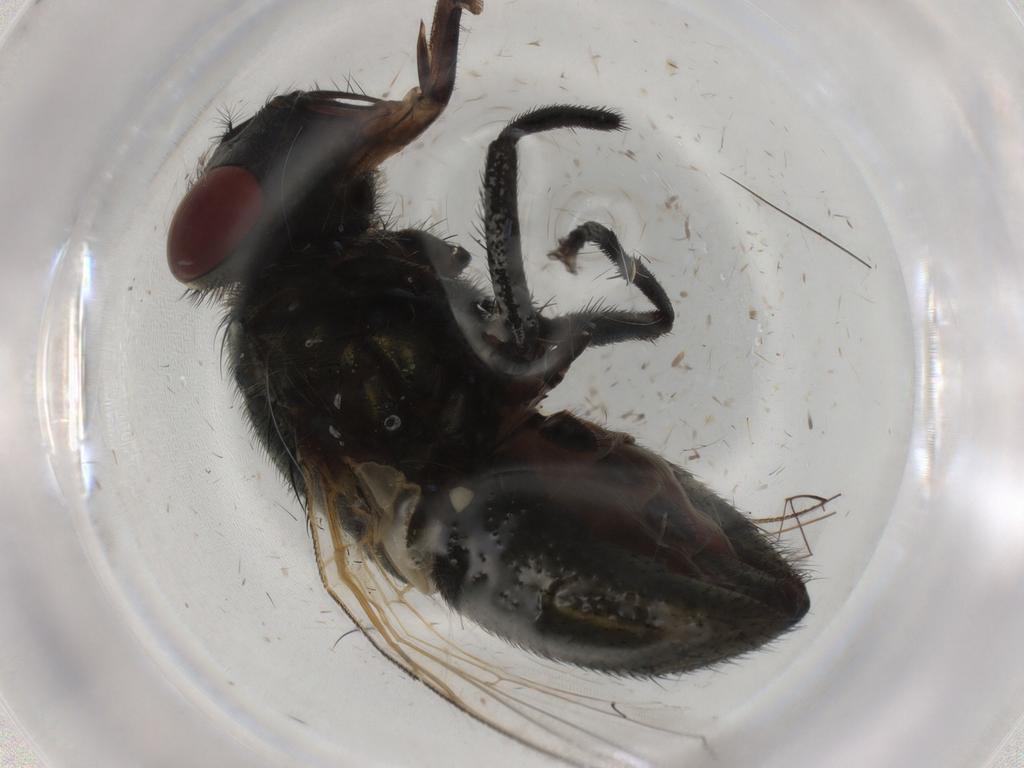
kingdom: Animalia
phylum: Arthropoda
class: Insecta
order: Diptera
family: Muscidae
